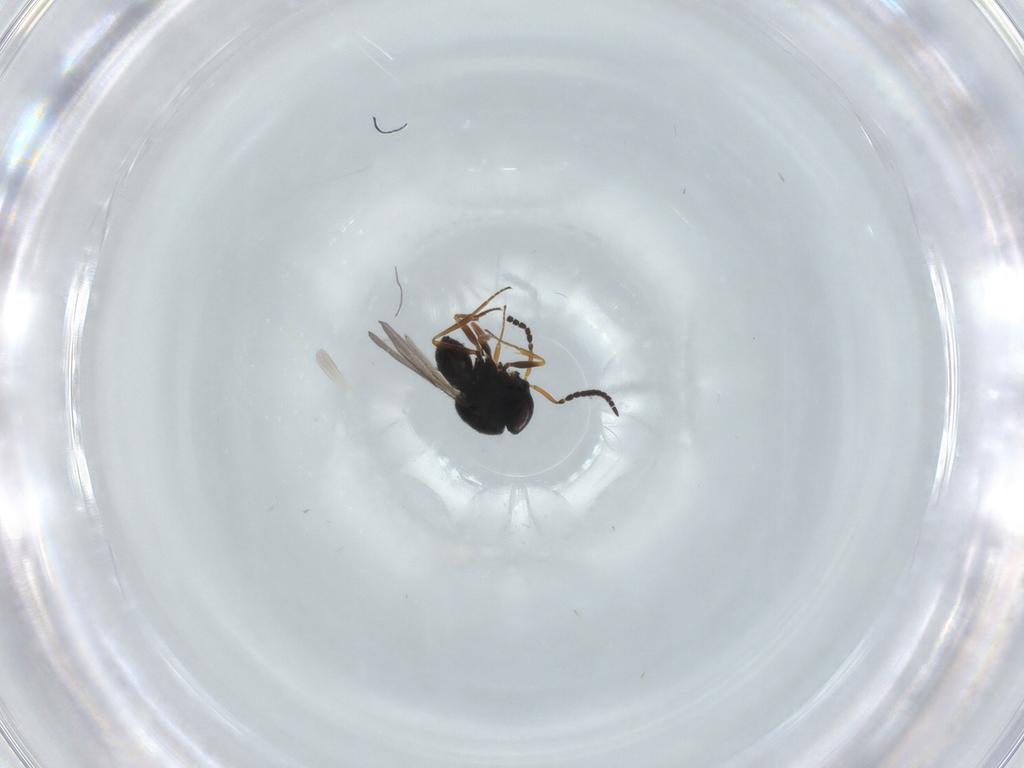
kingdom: Animalia
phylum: Arthropoda
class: Insecta
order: Hymenoptera
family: Scelionidae
